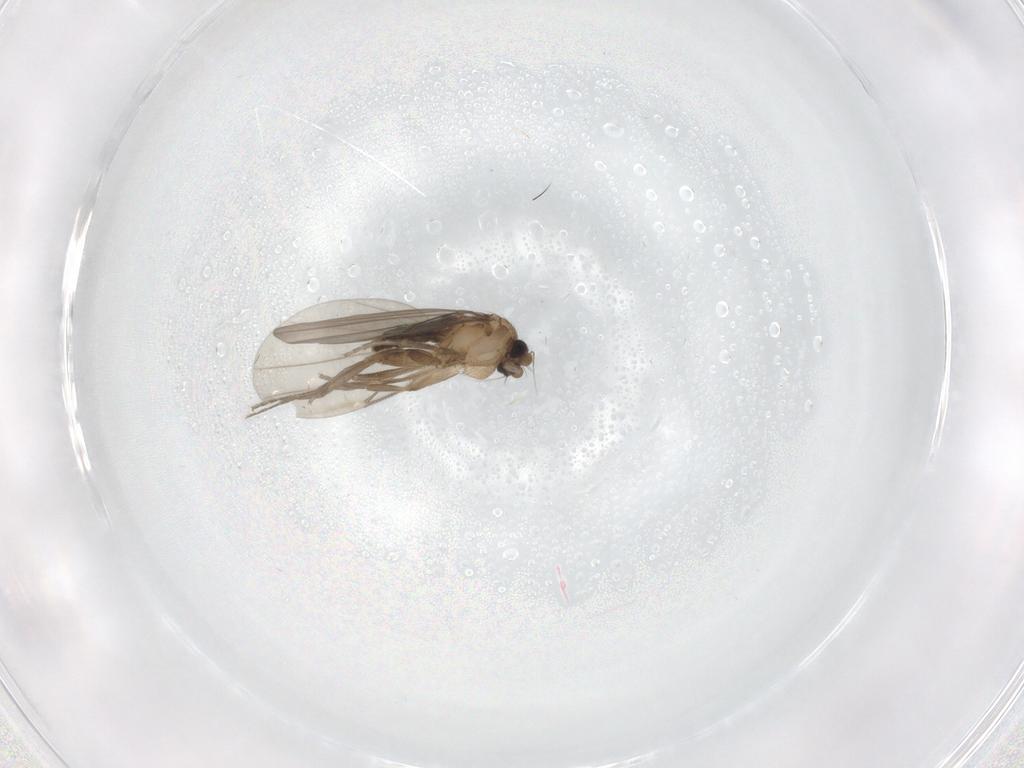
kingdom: Animalia
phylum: Arthropoda
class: Insecta
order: Diptera
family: Phoridae
